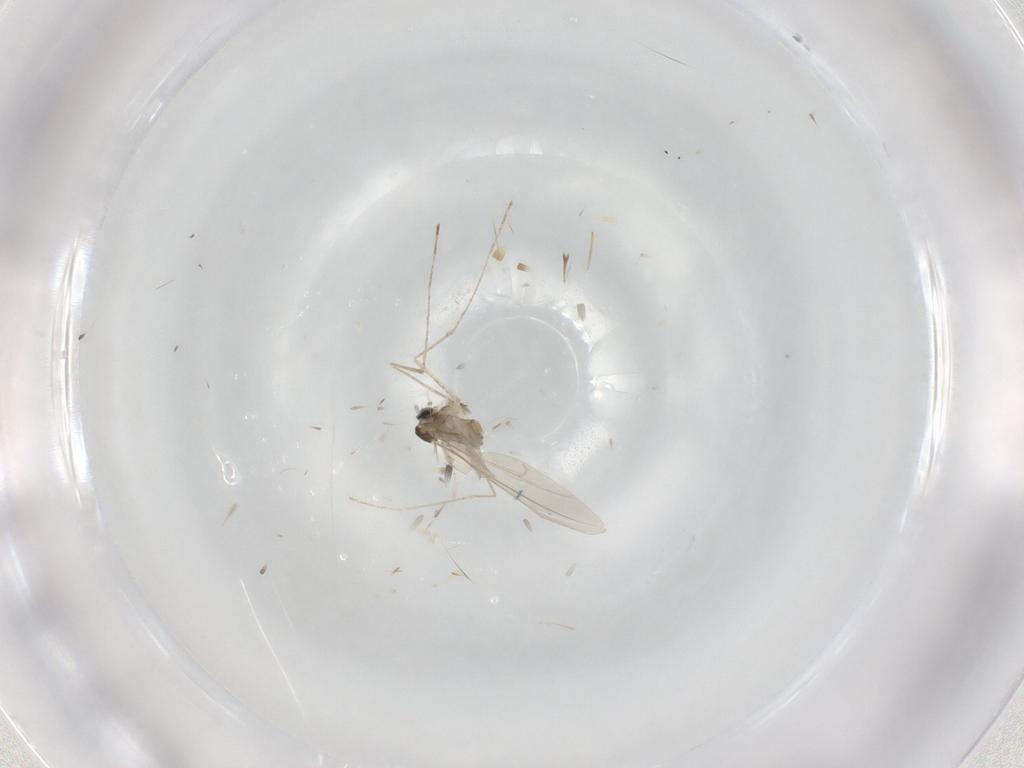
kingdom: Animalia
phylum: Arthropoda
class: Insecta
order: Diptera
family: Cecidomyiidae
